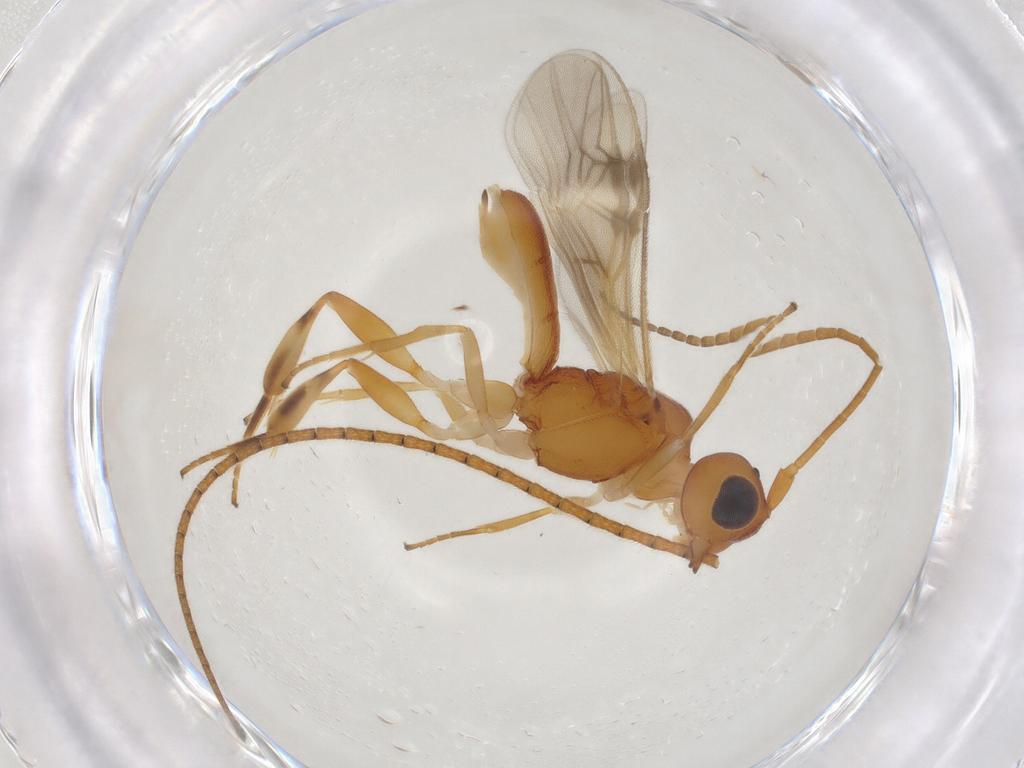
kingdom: Animalia
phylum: Arthropoda
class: Insecta
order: Hymenoptera
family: Braconidae
